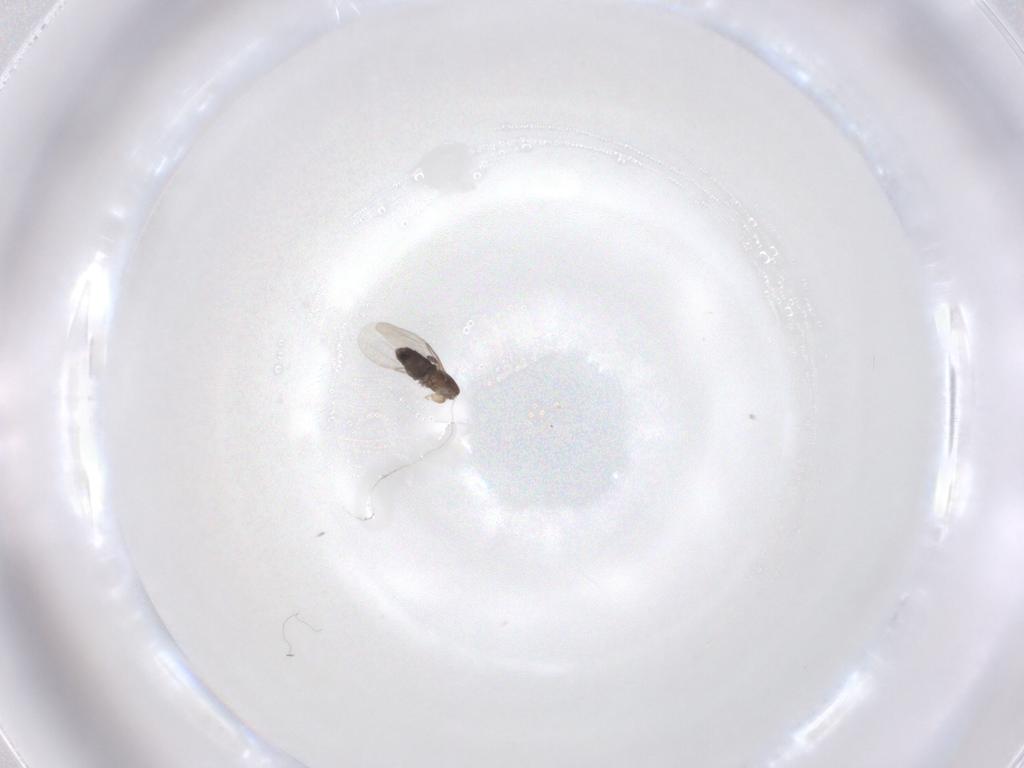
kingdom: Animalia
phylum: Arthropoda
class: Insecta
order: Diptera
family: Phoridae
